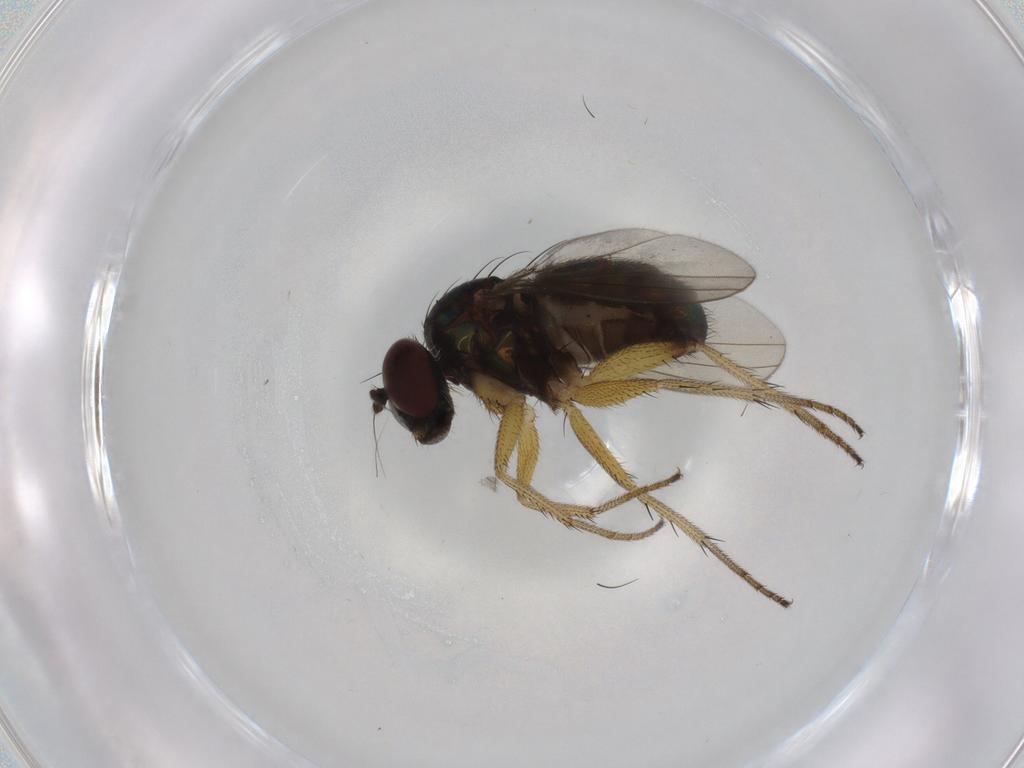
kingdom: Animalia
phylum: Arthropoda
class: Insecta
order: Diptera
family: Dolichopodidae
